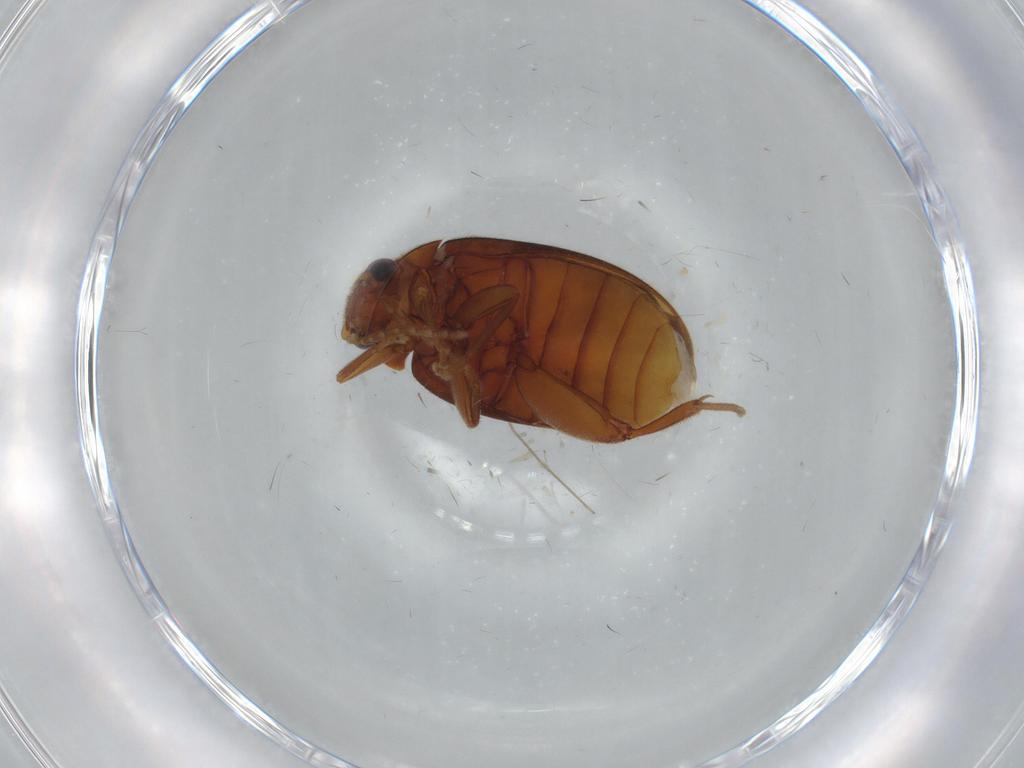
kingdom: Animalia
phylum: Arthropoda
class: Insecta
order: Coleoptera
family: Scirtidae
